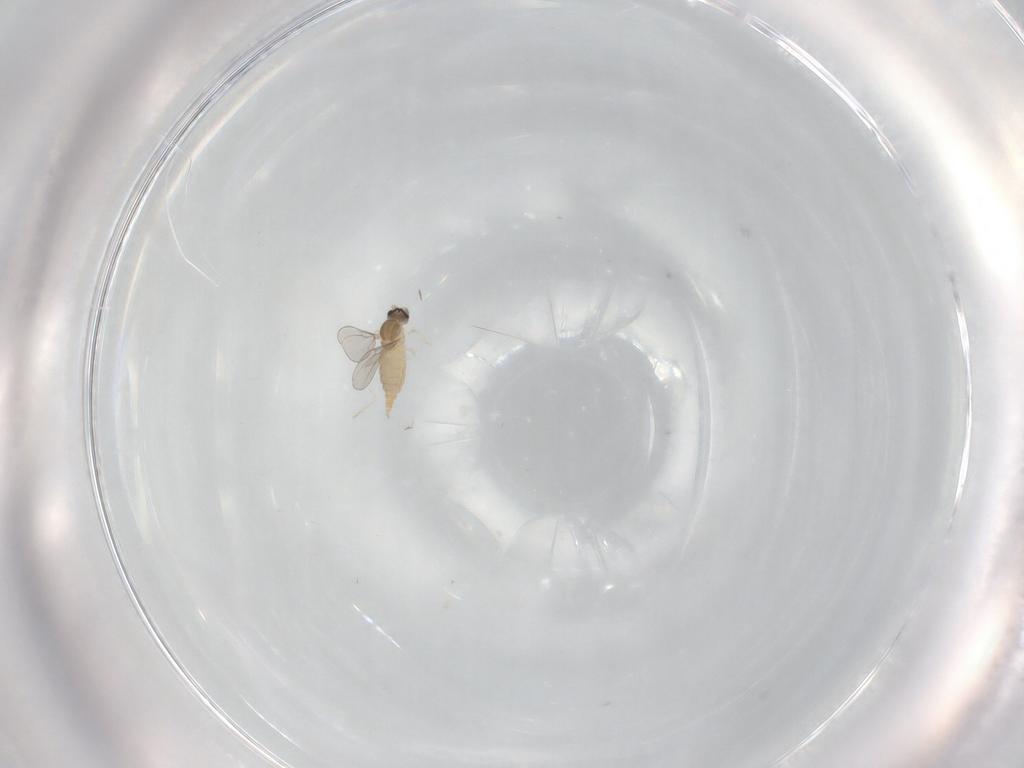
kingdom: Animalia
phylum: Arthropoda
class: Insecta
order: Diptera
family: Cecidomyiidae
